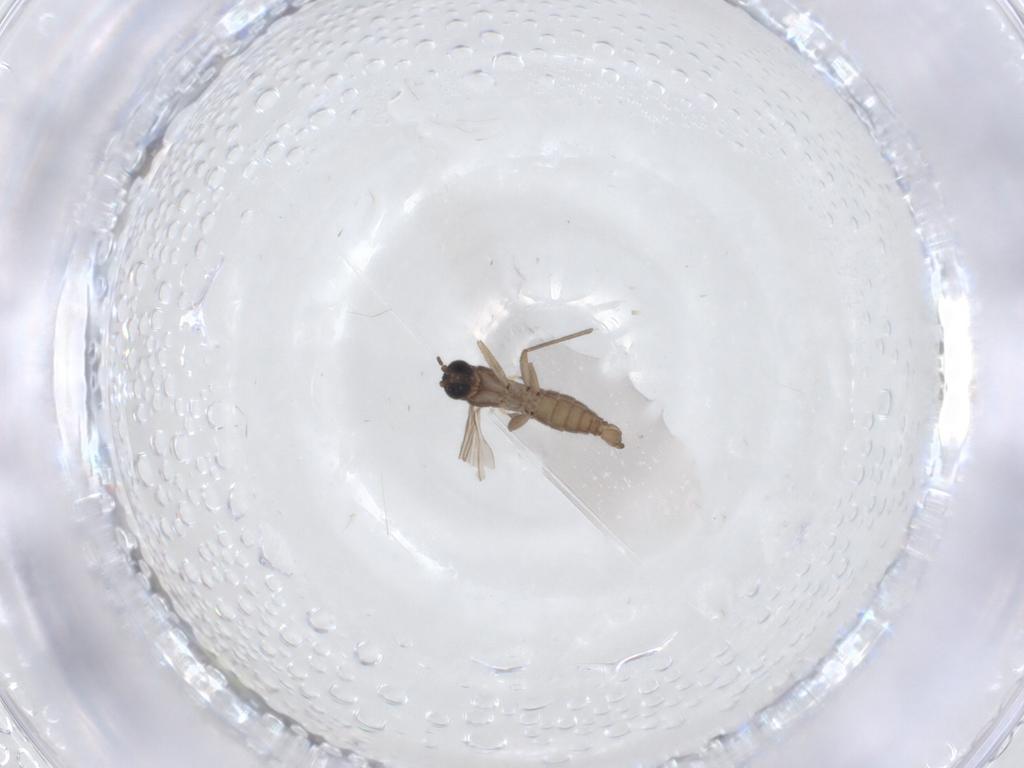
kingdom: Animalia
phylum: Arthropoda
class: Insecta
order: Diptera
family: Sciaridae
